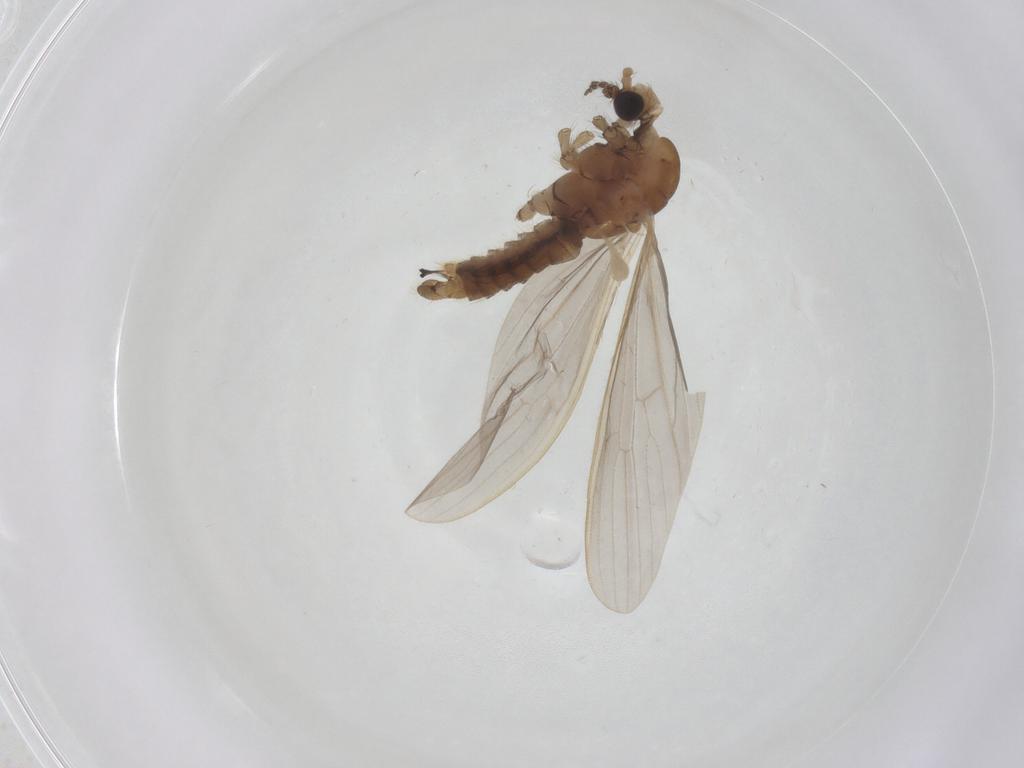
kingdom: Animalia
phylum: Arthropoda
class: Insecta
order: Diptera
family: Limoniidae
